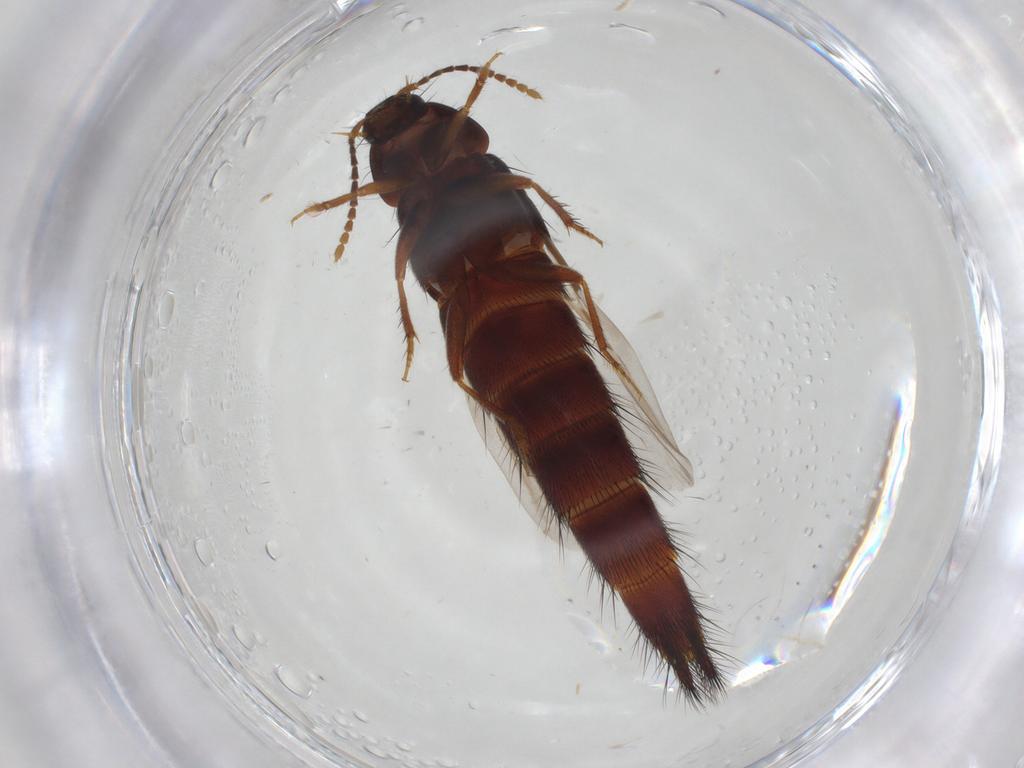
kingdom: Animalia
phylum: Arthropoda
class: Insecta
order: Coleoptera
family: Staphylinidae
